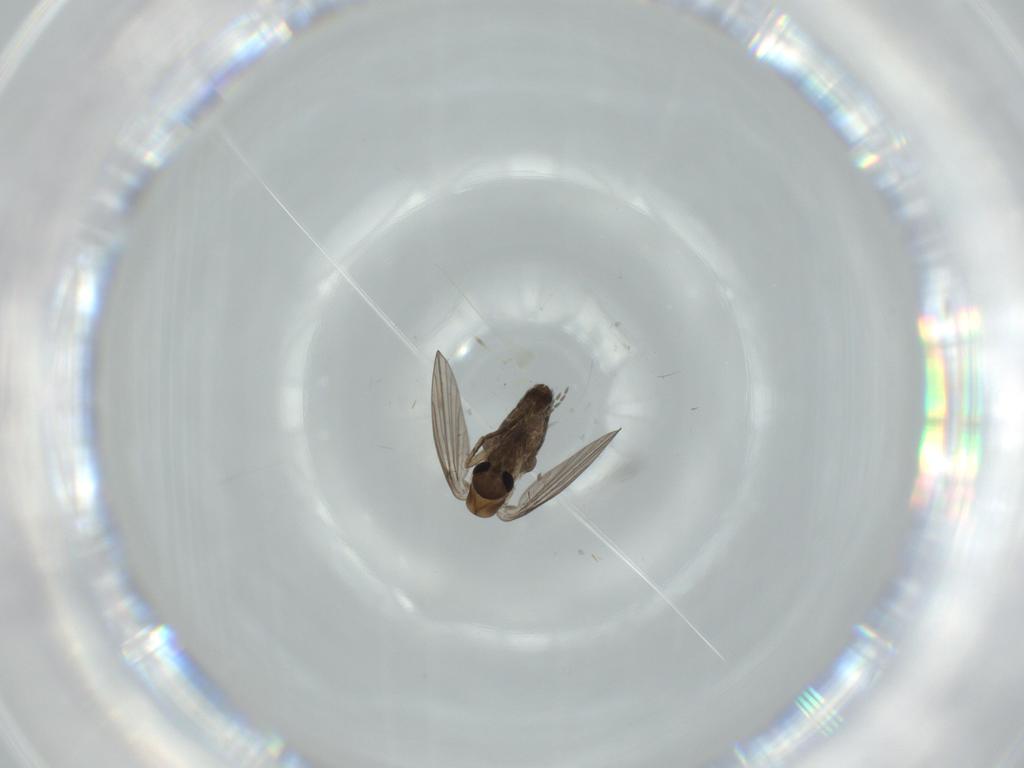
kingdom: Animalia
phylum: Arthropoda
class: Insecta
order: Diptera
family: Psychodidae
